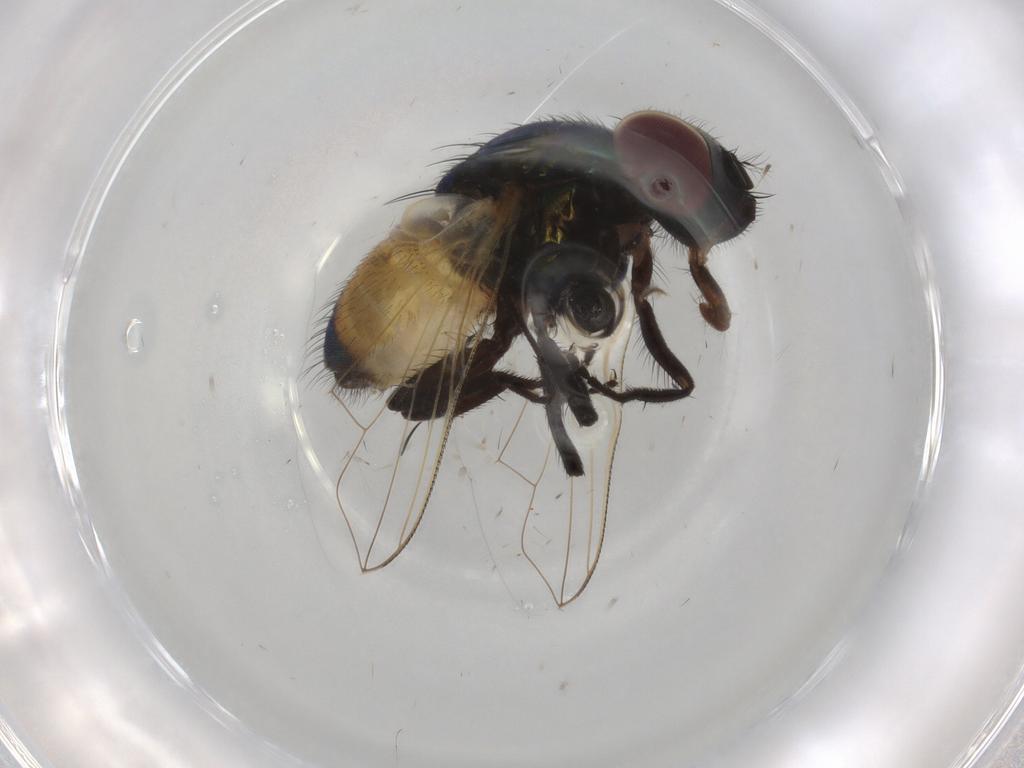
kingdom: Animalia
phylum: Arthropoda
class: Insecta
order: Diptera
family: Muscidae
